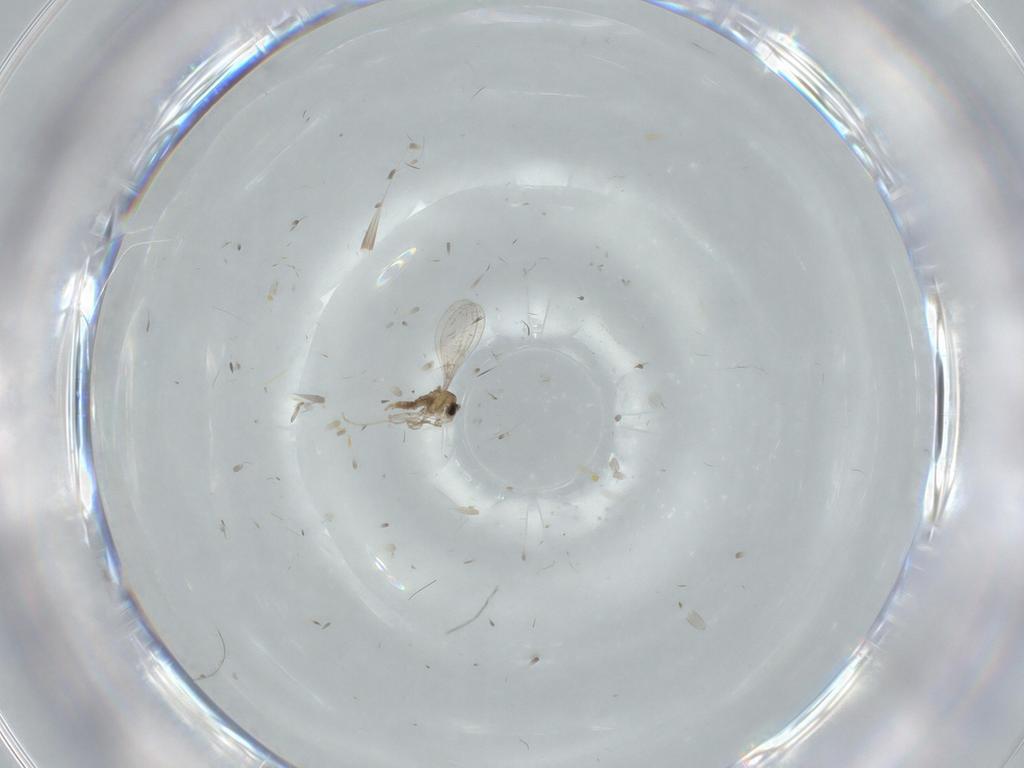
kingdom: Animalia
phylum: Arthropoda
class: Insecta
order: Diptera
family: Cecidomyiidae
